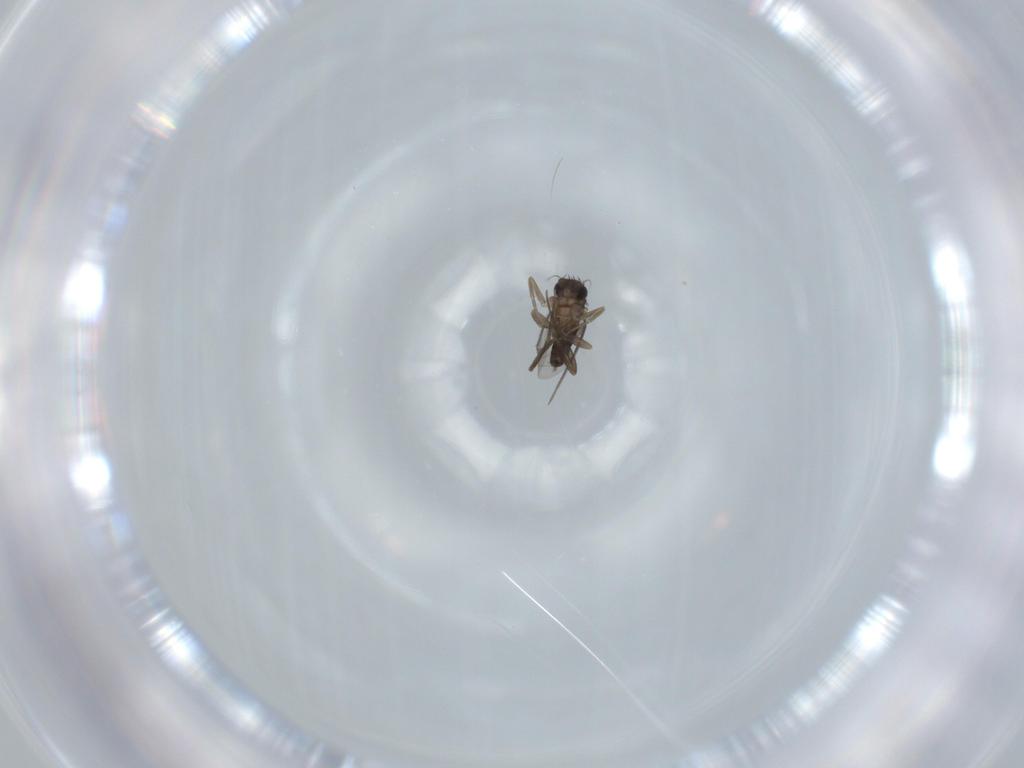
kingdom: Animalia
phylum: Arthropoda
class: Insecta
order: Diptera
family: Phoridae
